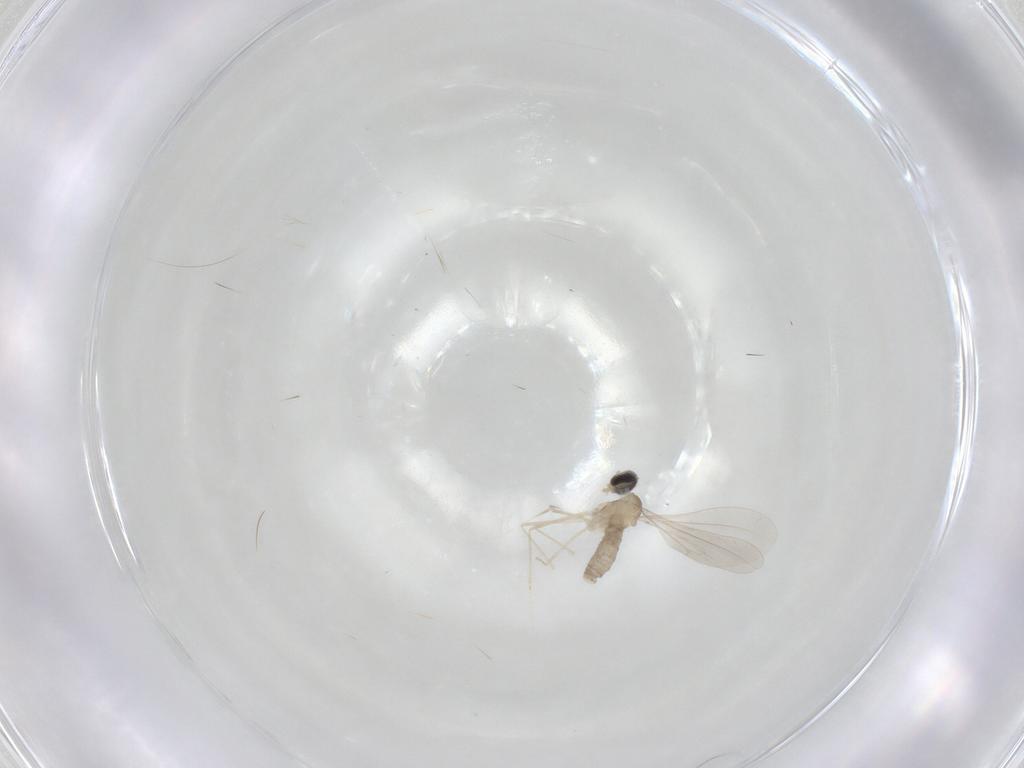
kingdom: Animalia
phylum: Arthropoda
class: Insecta
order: Diptera
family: Cecidomyiidae
